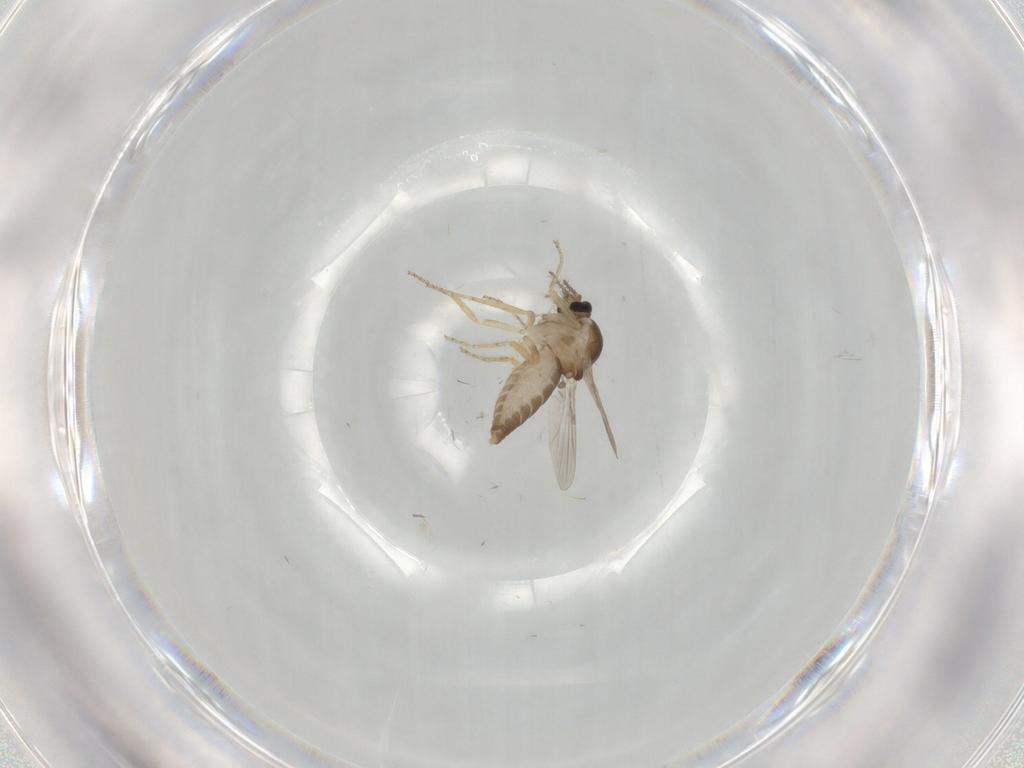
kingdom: Animalia
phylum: Arthropoda
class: Insecta
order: Diptera
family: Ceratopogonidae
